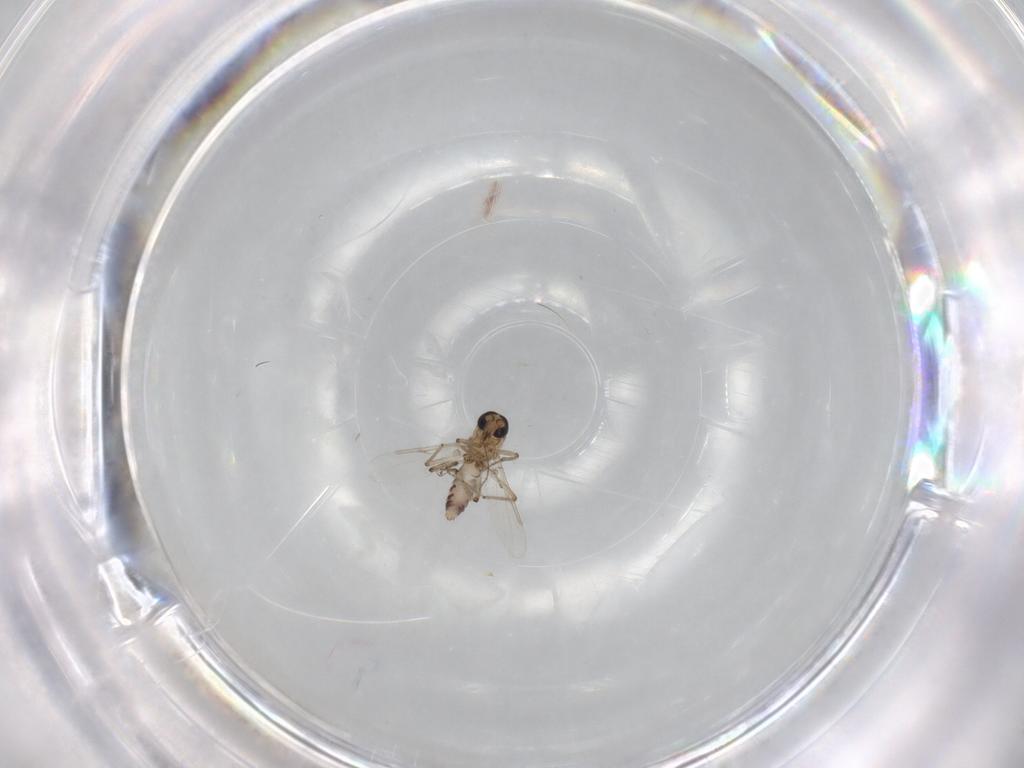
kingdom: Animalia
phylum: Arthropoda
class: Insecta
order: Diptera
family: Ceratopogonidae
